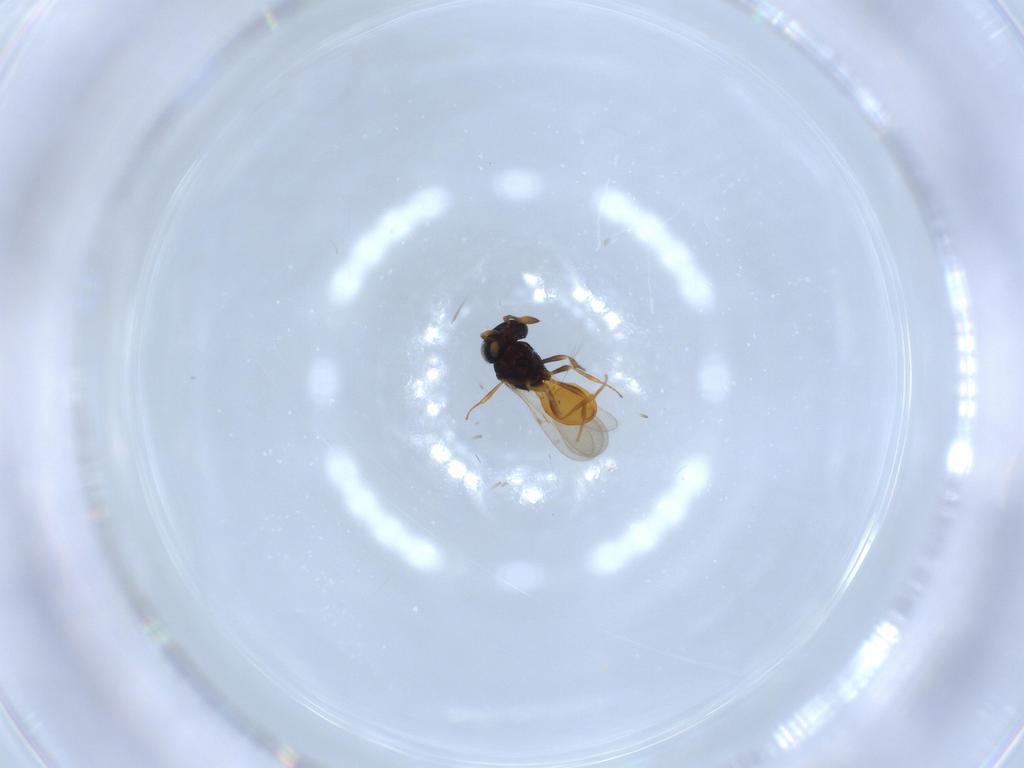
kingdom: Animalia
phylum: Arthropoda
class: Insecta
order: Hymenoptera
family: Scelionidae
